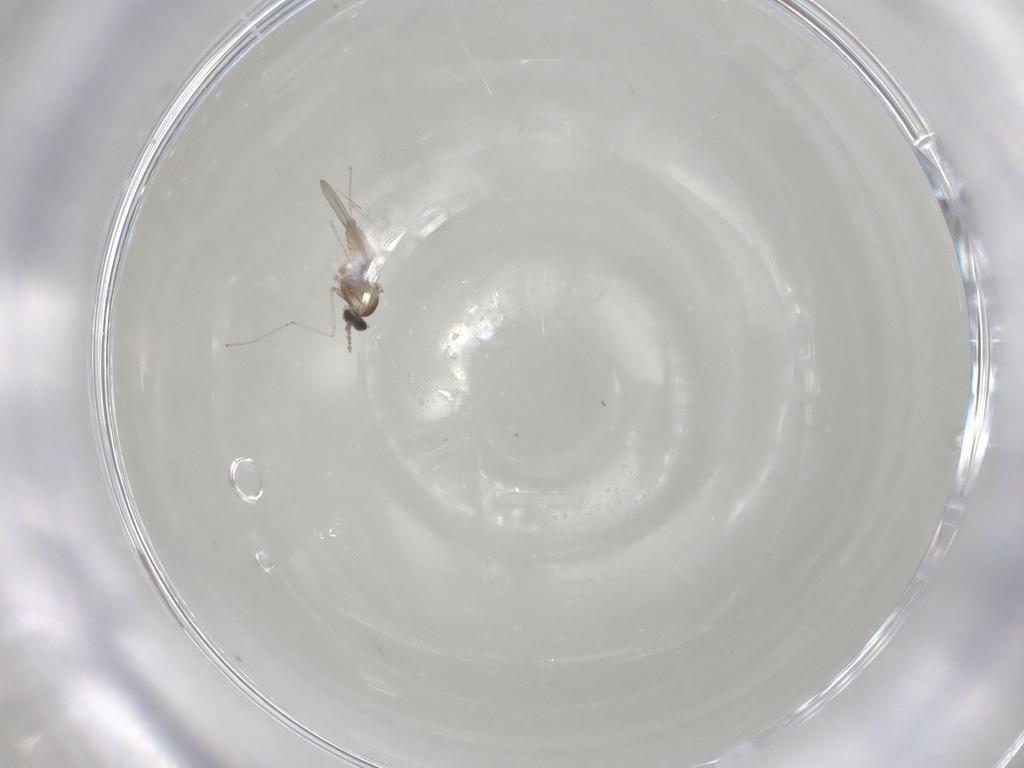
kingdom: Animalia
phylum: Arthropoda
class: Insecta
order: Diptera
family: Cecidomyiidae
